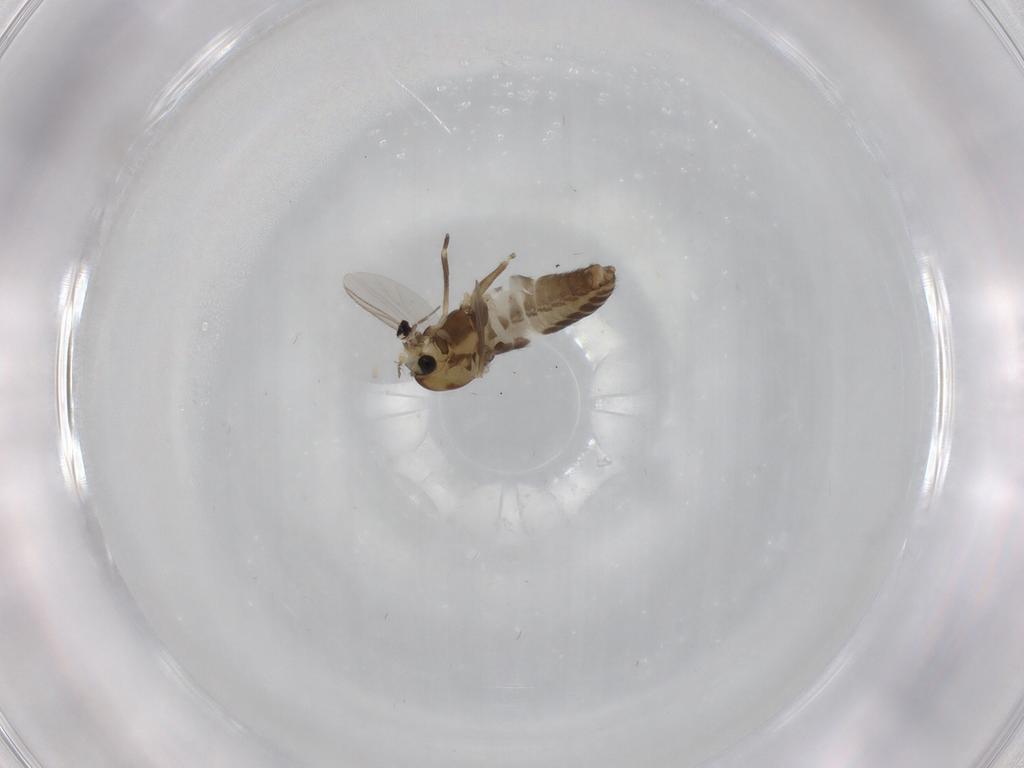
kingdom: Animalia
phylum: Arthropoda
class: Insecta
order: Diptera
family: Chironomidae
